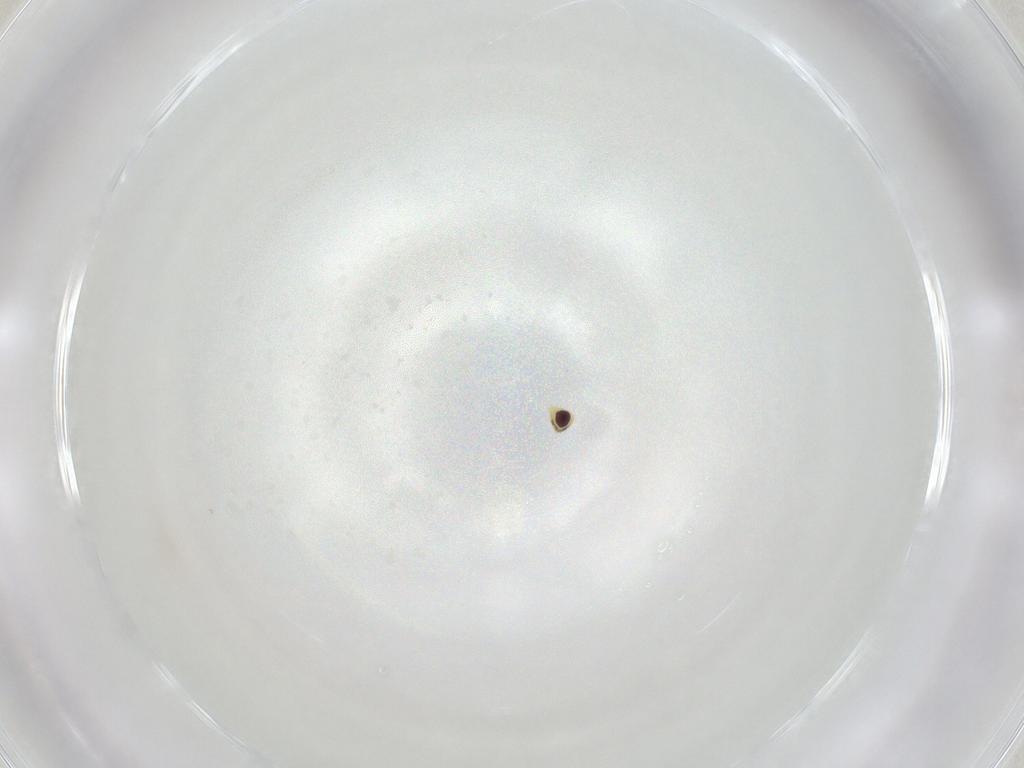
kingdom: Animalia
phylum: Arthropoda
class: Insecta
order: Diptera
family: Agromyzidae
